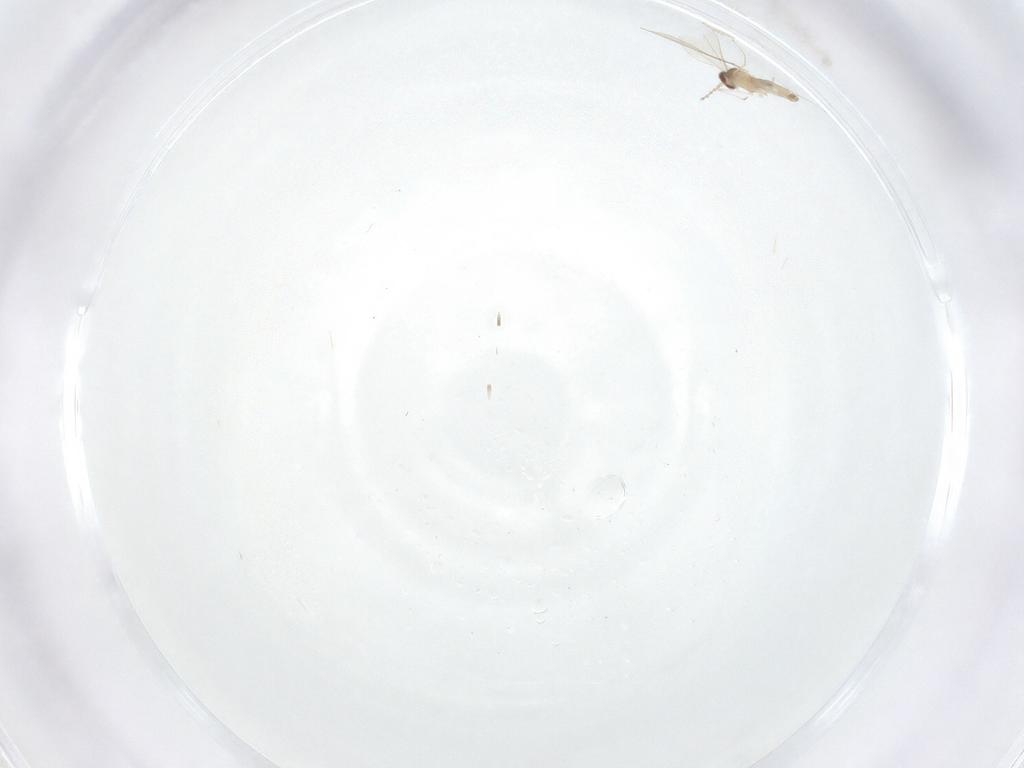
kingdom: Animalia
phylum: Arthropoda
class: Insecta
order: Diptera
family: Cecidomyiidae
